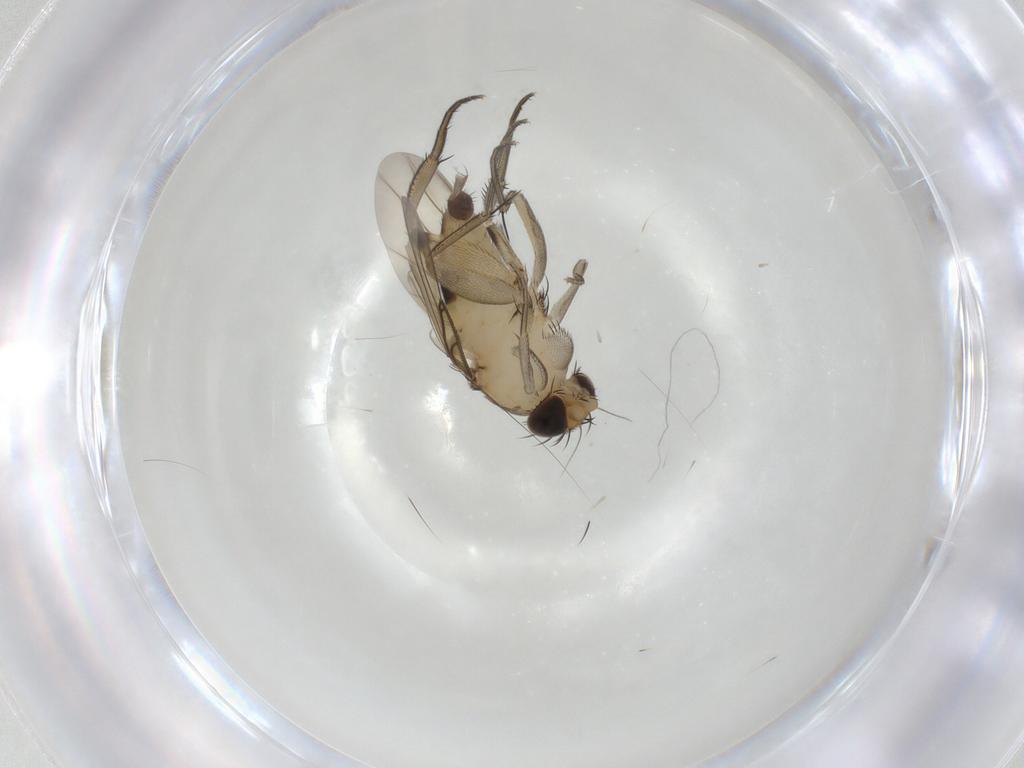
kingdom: Animalia
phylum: Arthropoda
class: Insecta
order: Diptera
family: Phoridae
